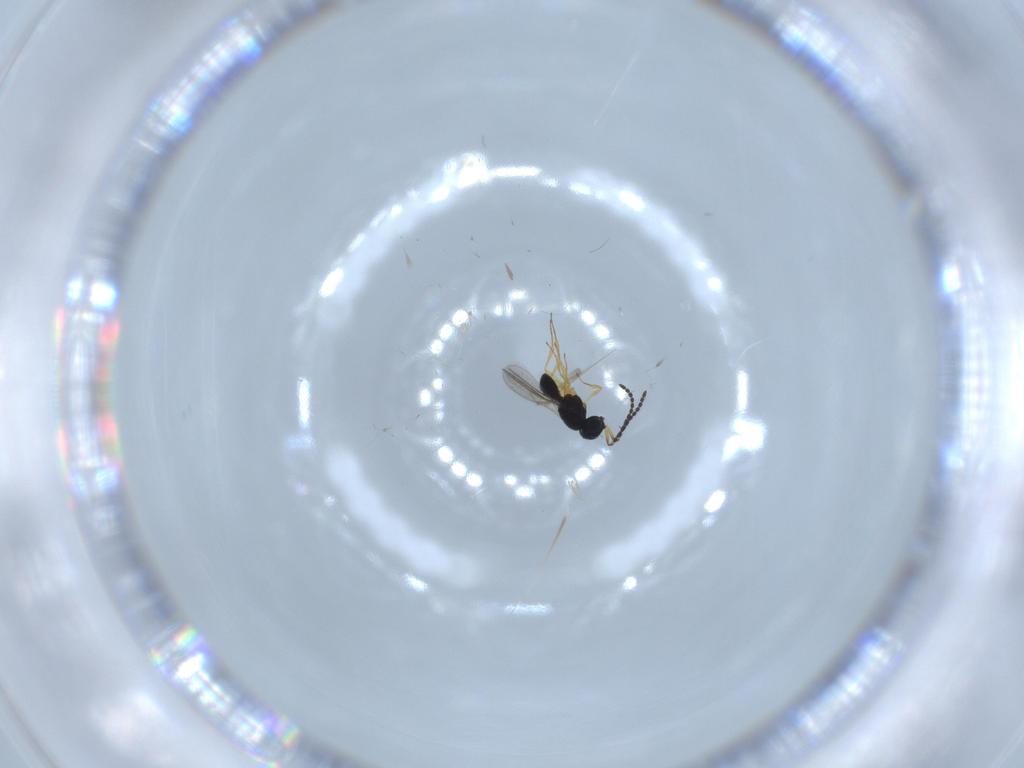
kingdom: Animalia
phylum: Arthropoda
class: Insecta
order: Hymenoptera
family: Scelionidae
